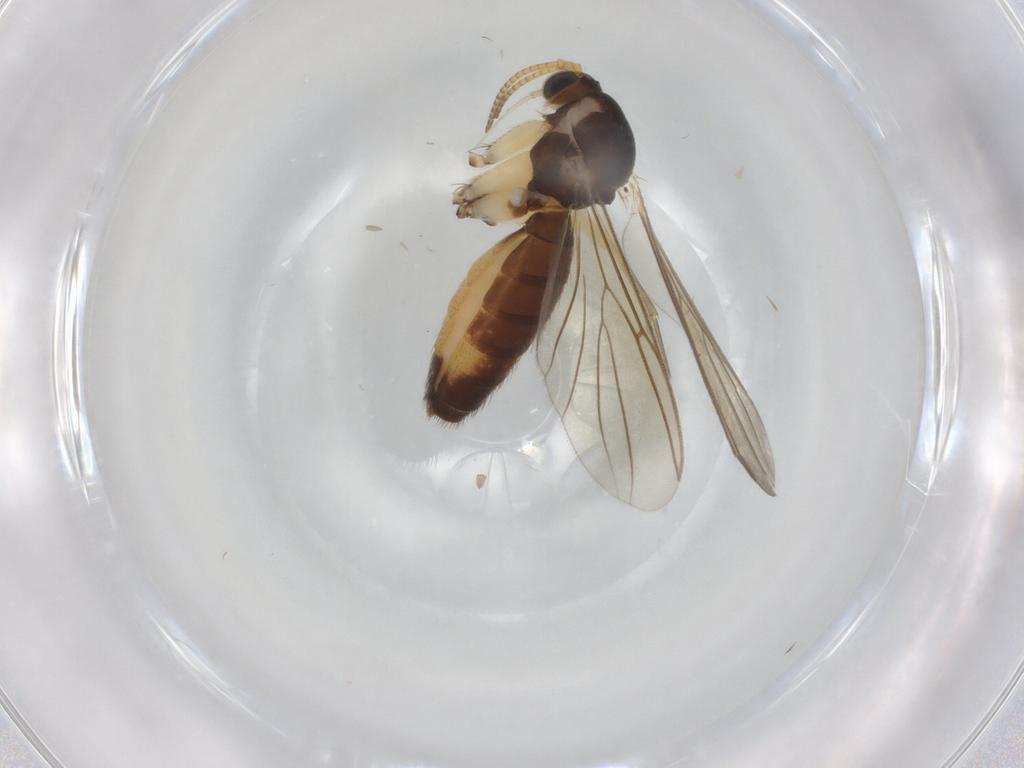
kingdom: Animalia
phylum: Arthropoda
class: Insecta
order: Diptera
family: Mycetophilidae
